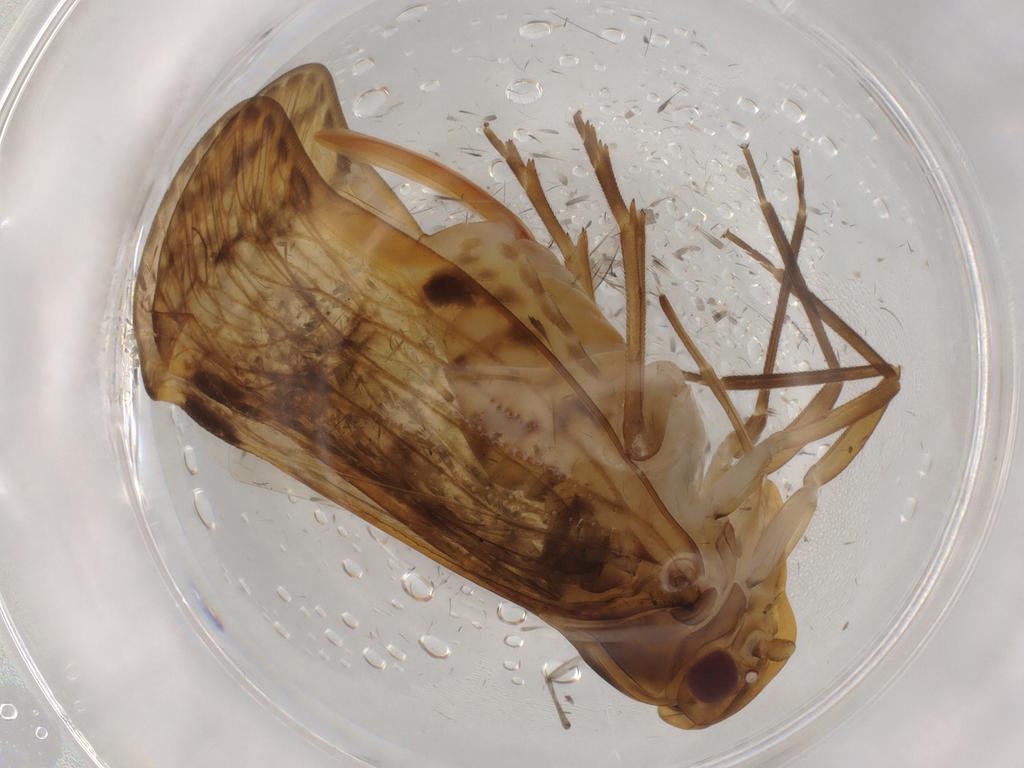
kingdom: Animalia
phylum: Arthropoda
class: Insecta
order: Hemiptera
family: Cixiidae
